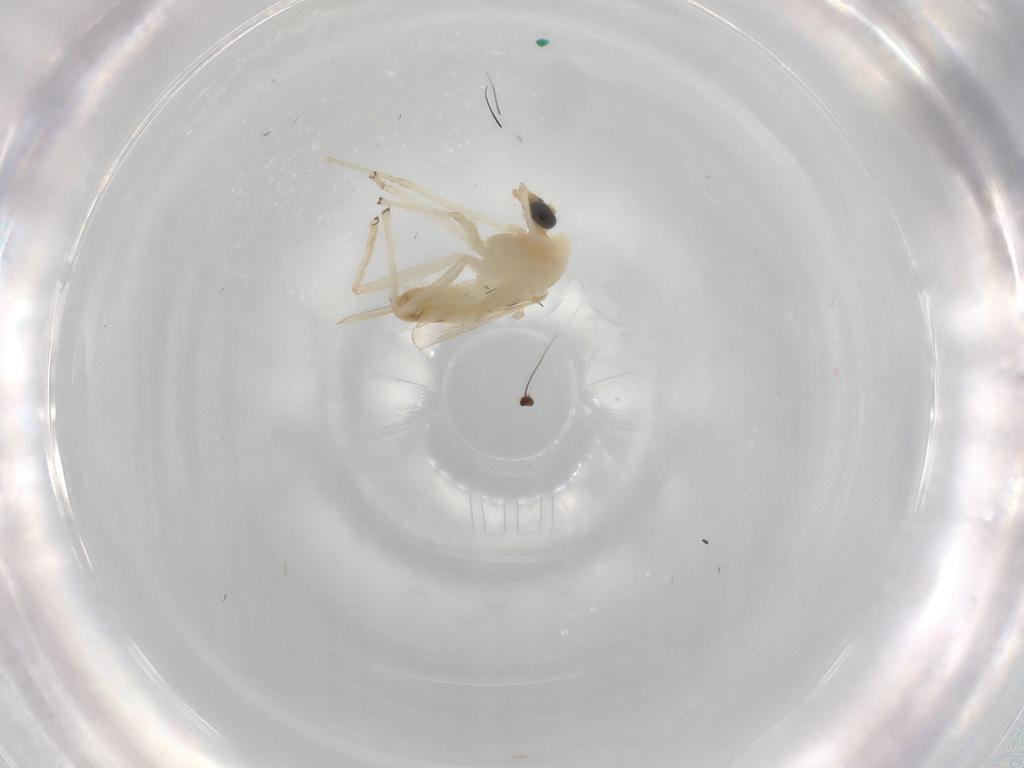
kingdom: Animalia
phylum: Arthropoda
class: Insecta
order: Diptera
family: Chironomidae
